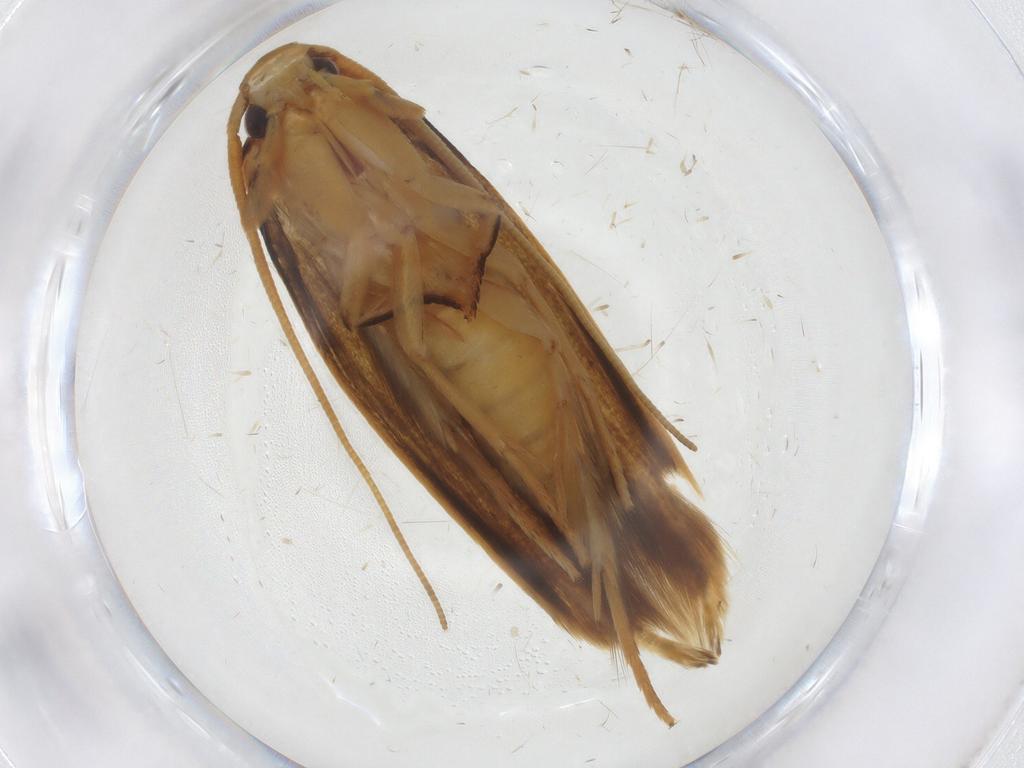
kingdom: Animalia
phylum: Arthropoda
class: Insecta
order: Lepidoptera
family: Tineidae
